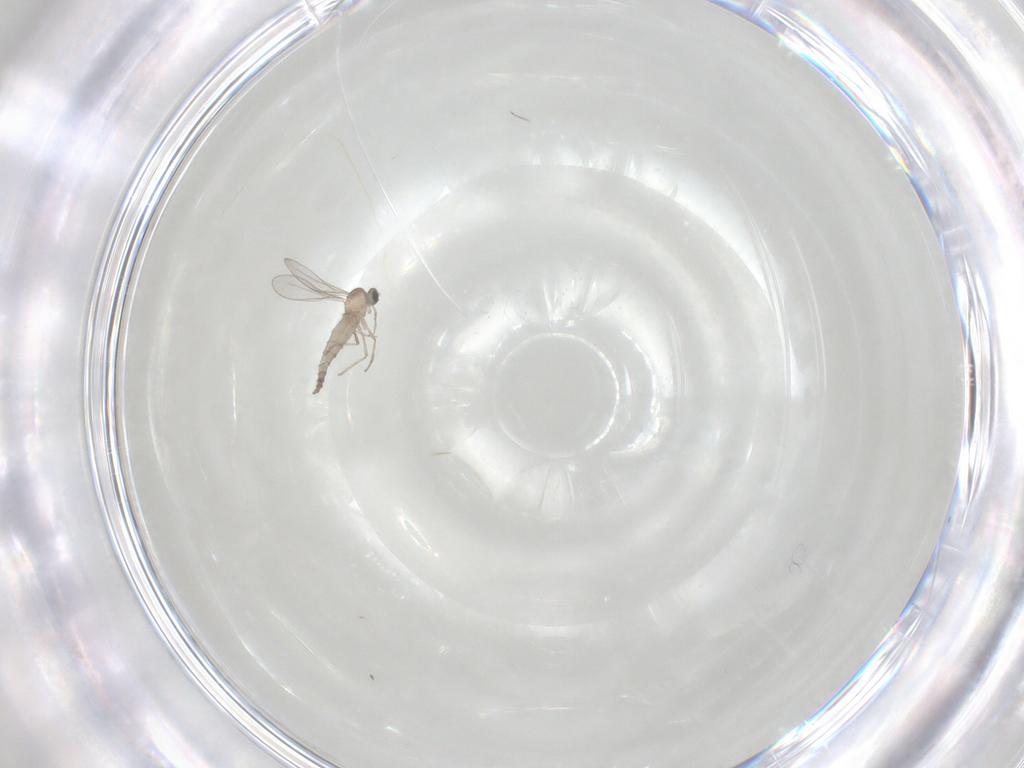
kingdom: Animalia
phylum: Arthropoda
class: Insecta
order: Diptera
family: Cecidomyiidae
